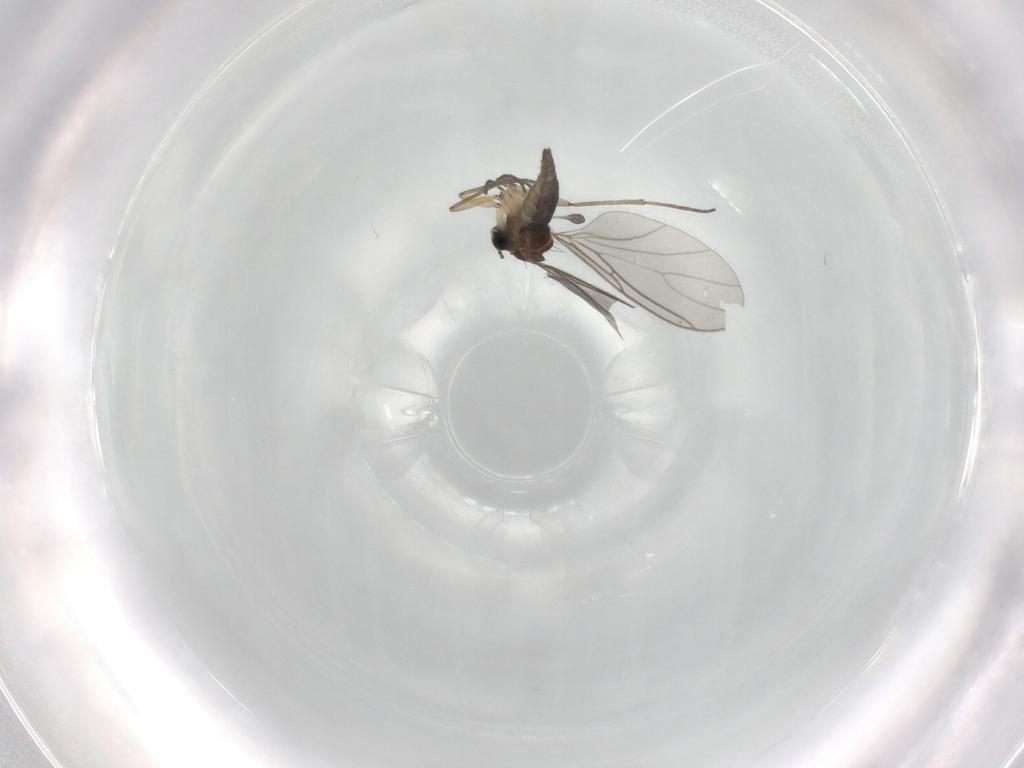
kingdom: Animalia
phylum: Arthropoda
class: Insecta
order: Diptera
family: Sciaridae
